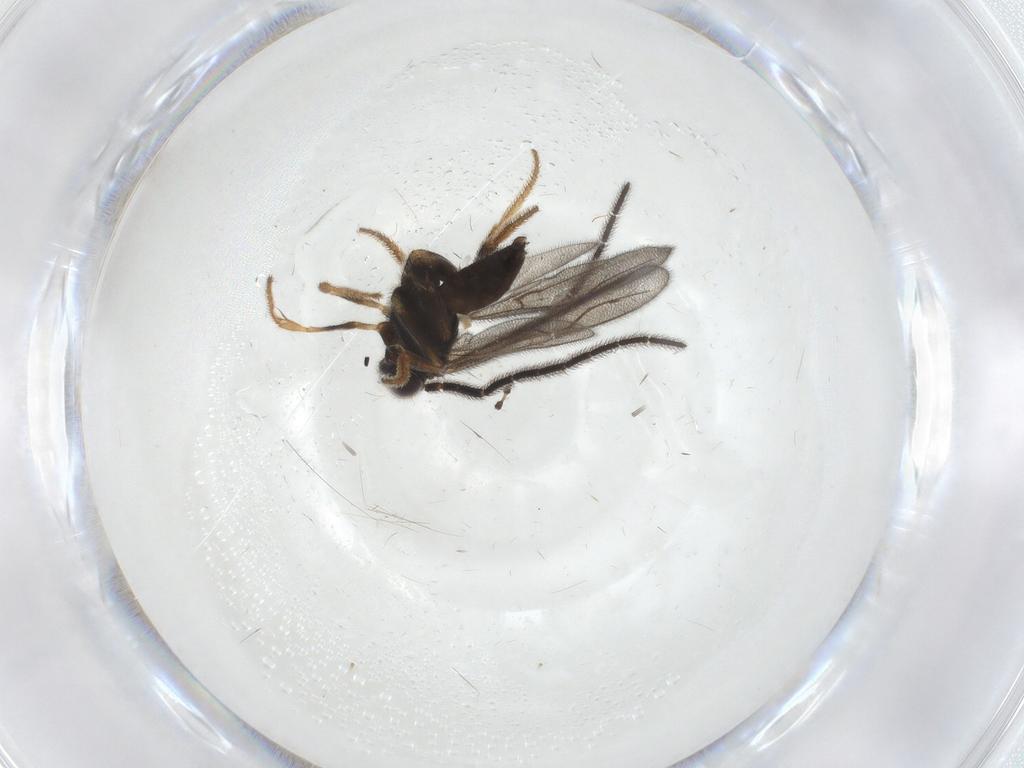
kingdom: Animalia
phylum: Arthropoda
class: Insecta
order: Hymenoptera
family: Dryinidae
